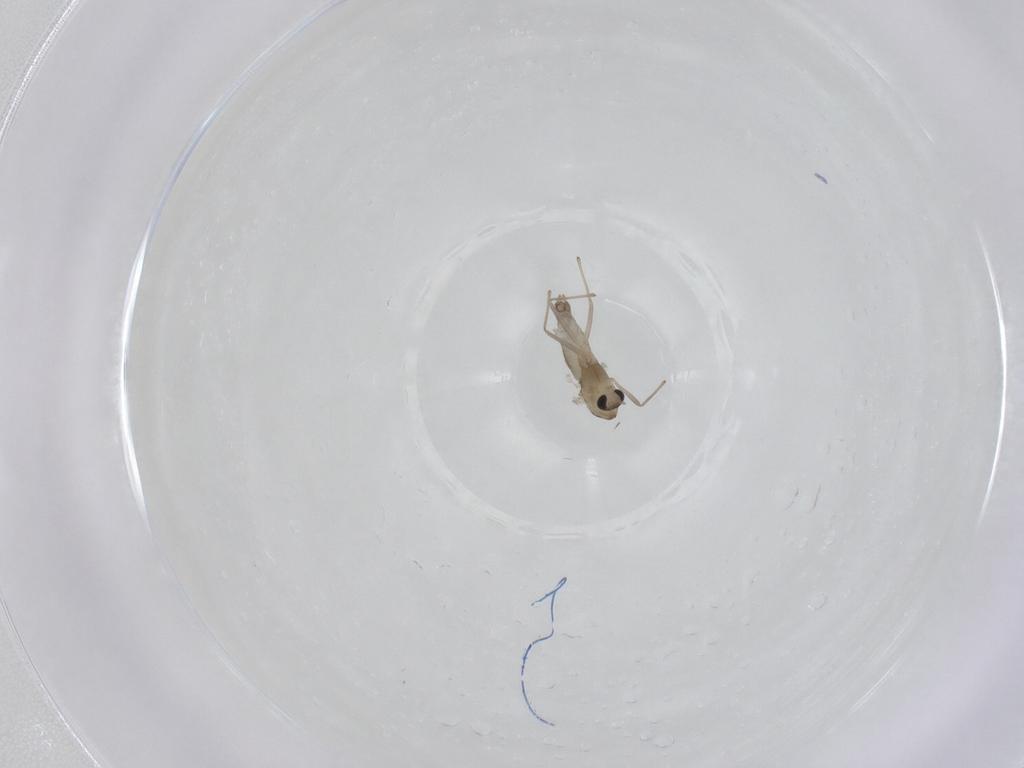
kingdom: Animalia
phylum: Arthropoda
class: Insecta
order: Diptera
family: Chironomidae
